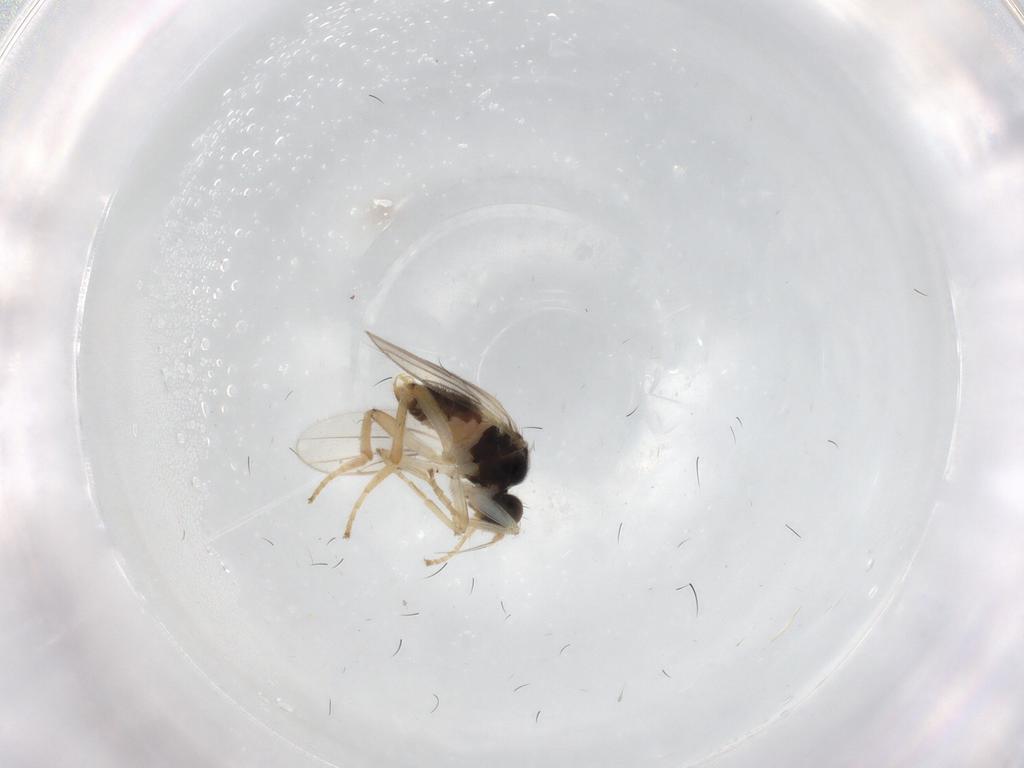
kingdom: Animalia
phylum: Arthropoda
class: Insecta
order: Diptera
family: Hybotidae
